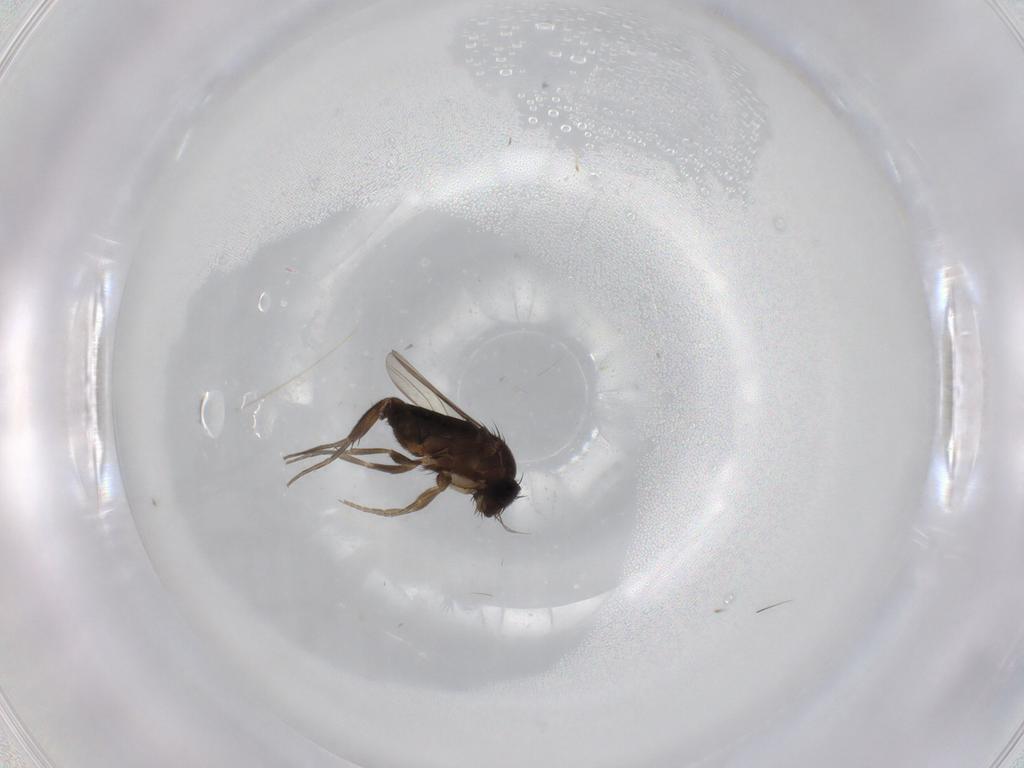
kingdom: Animalia
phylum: Arthropoda
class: Insecta
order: Diptera
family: Phoridae
